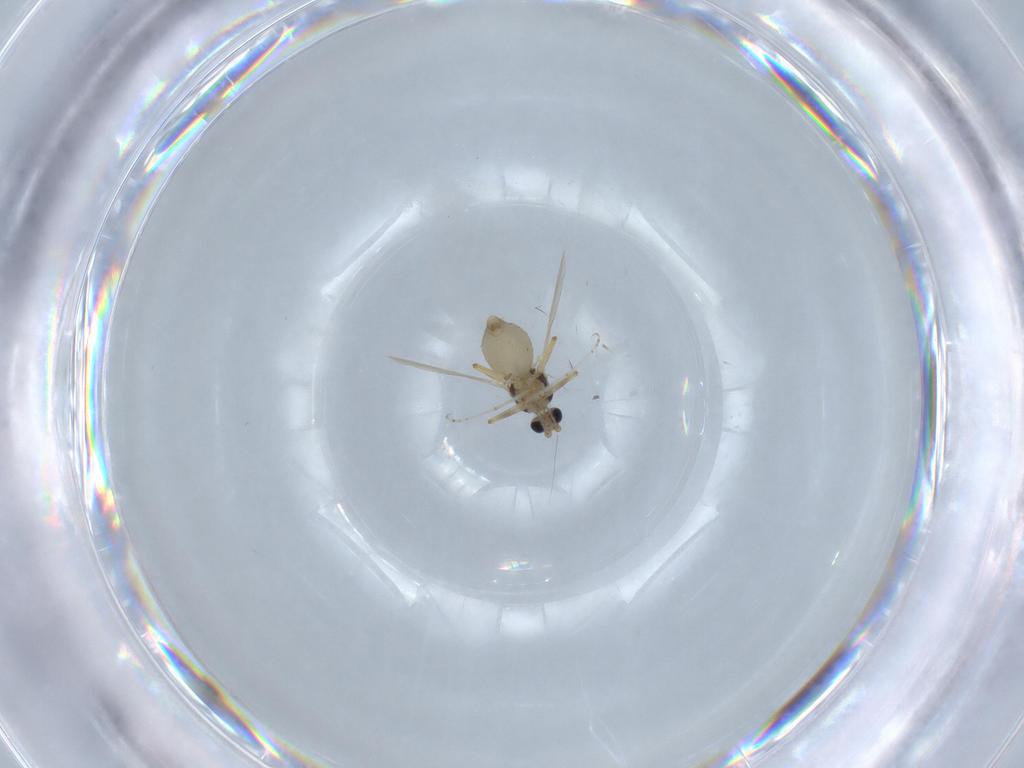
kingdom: Animalia
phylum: Arthropoda
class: Insecta
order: Diptera
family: Ceratopogonidae
